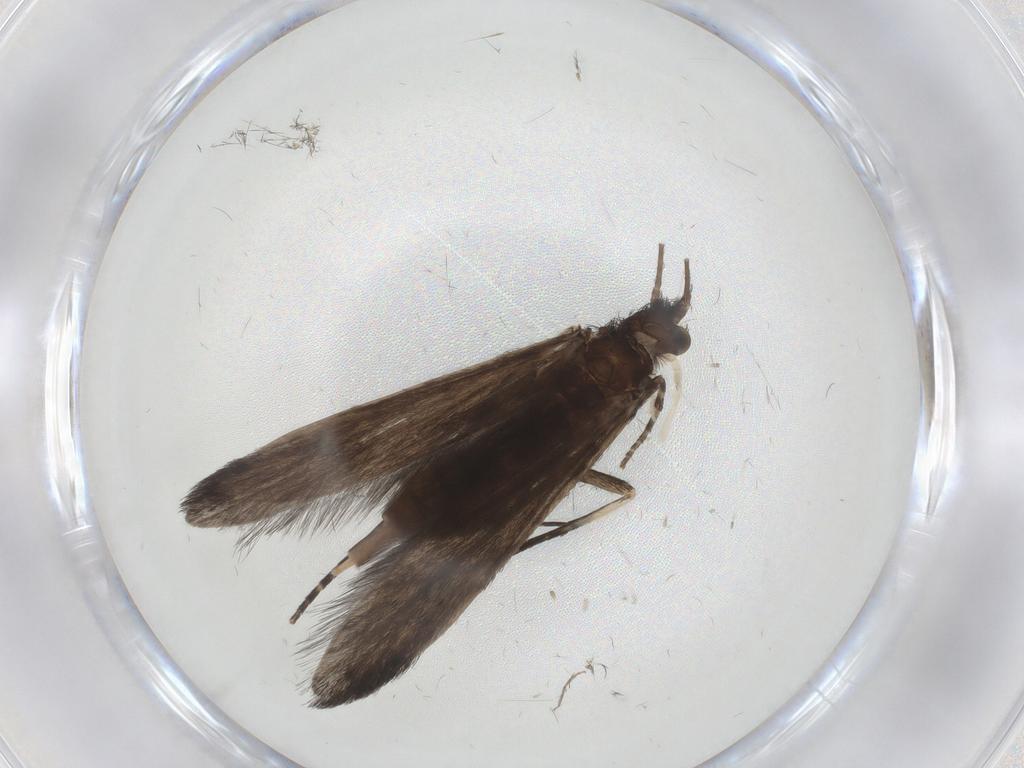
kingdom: Animalia
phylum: Arthropoda
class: Insecta
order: Trichoptera
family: Xiphocentronidae
